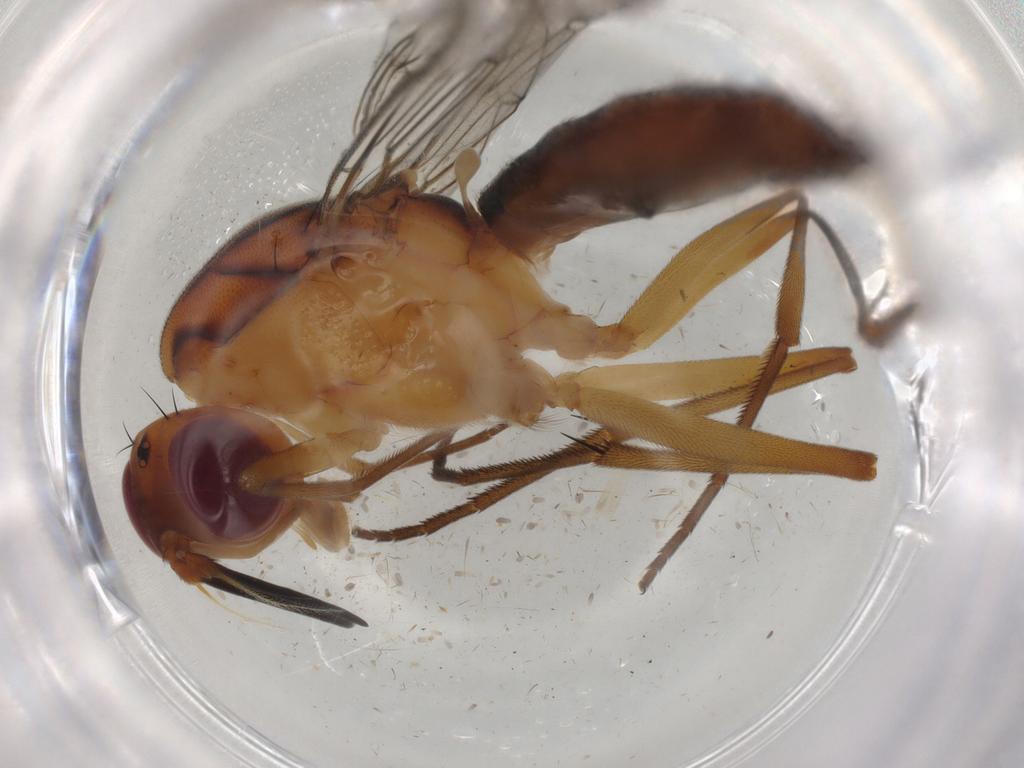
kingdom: Animalia
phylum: Arthropoda
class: Insecta
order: Diptera
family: Psilidae
